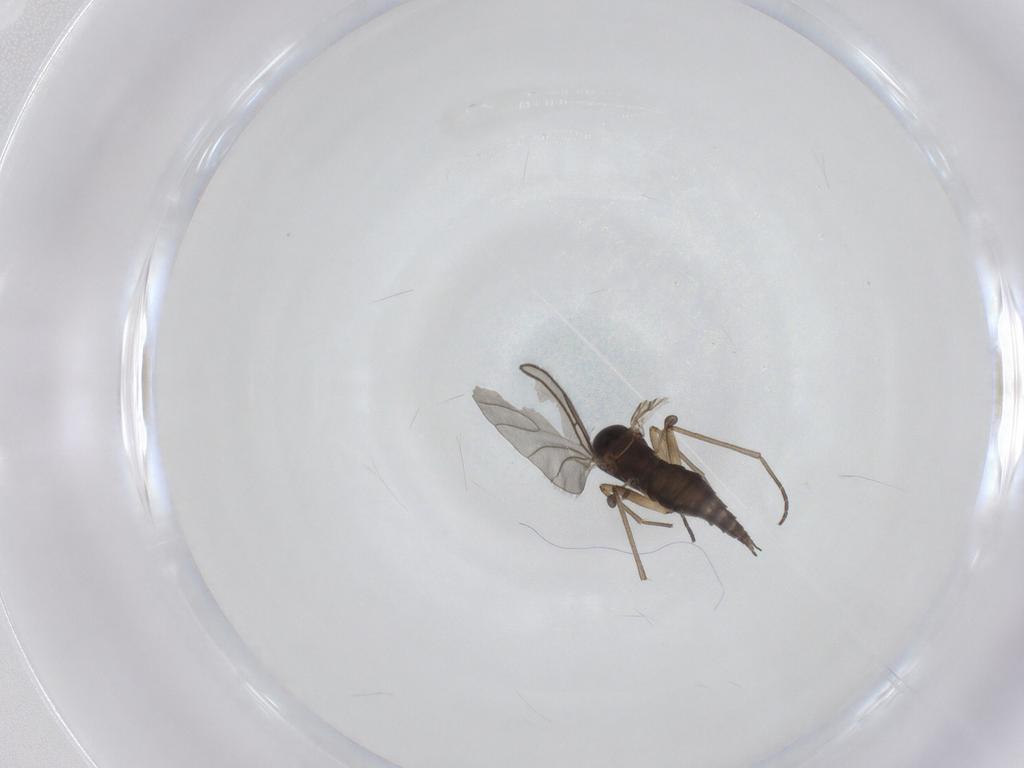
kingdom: Animalia
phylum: Arthropoda
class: Insecta
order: Diptera
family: Sciaridae
